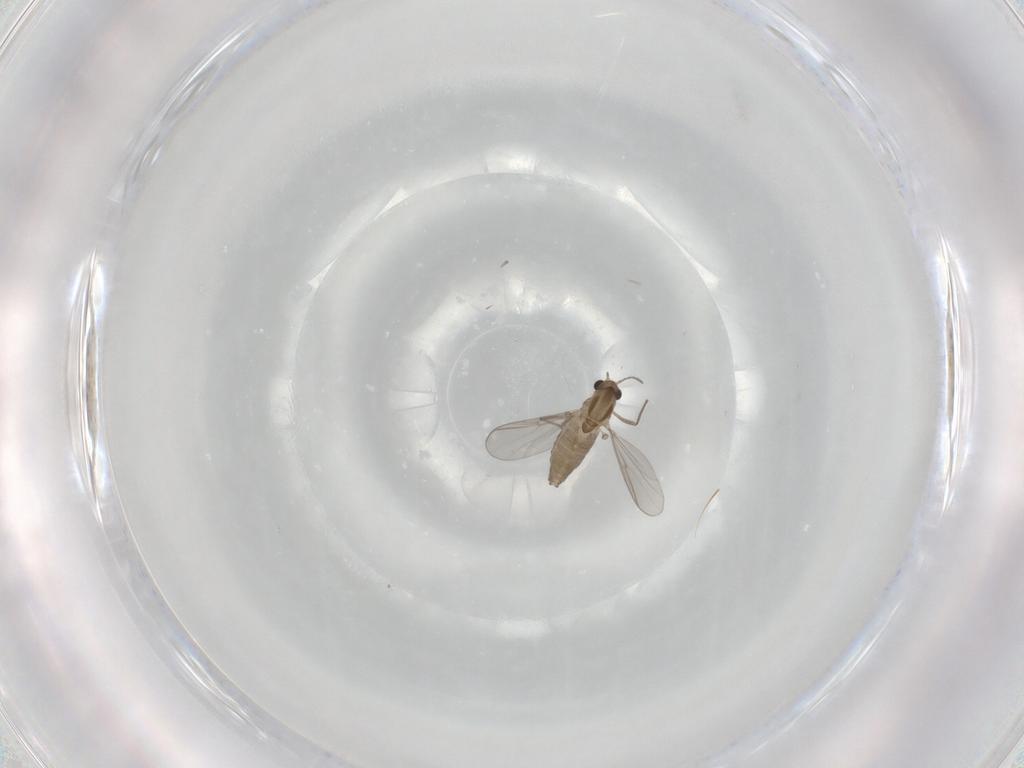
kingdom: Animalia
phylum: Arthropoda
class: Insecta
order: Diptera
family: Chironomidae
